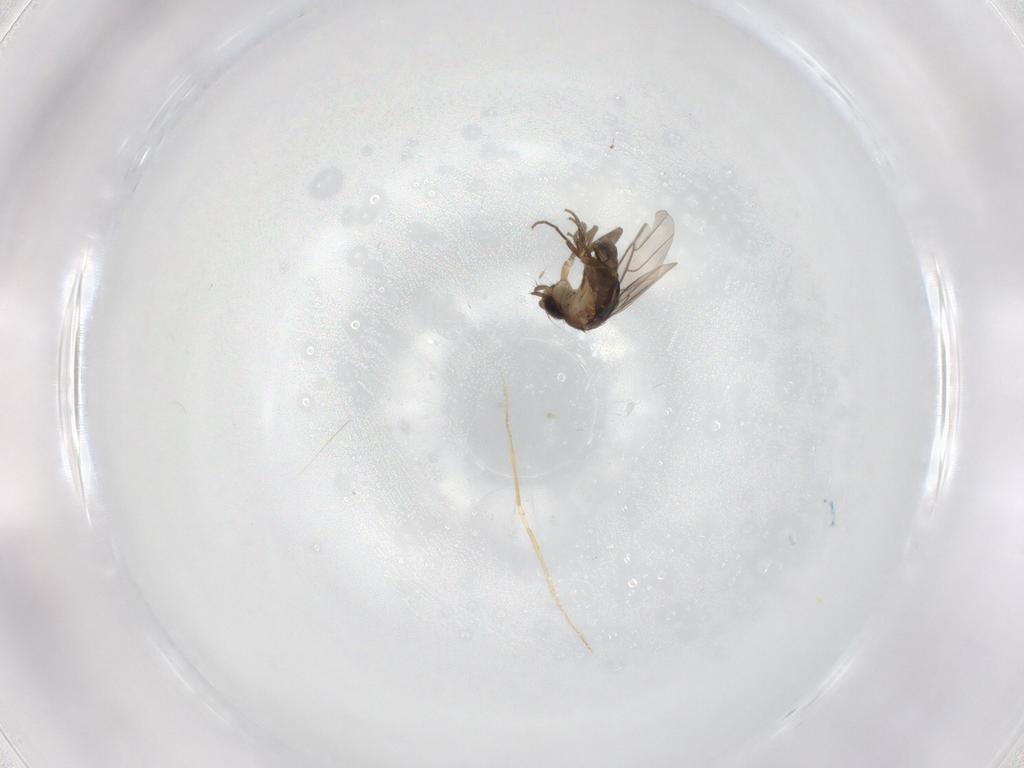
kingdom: Animalia
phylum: Arthropoda
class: Insecta
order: Diptera
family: Phoridae
